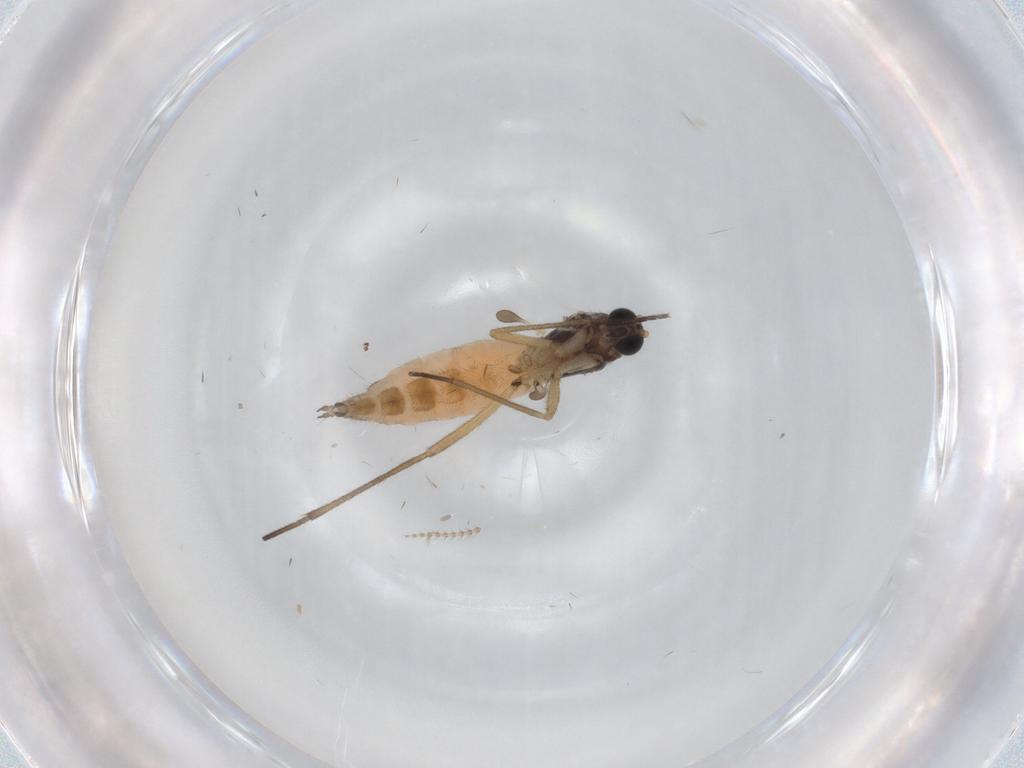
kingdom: Animalia
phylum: Arthropoda
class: Insecta
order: Diptera
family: Sciaridae
